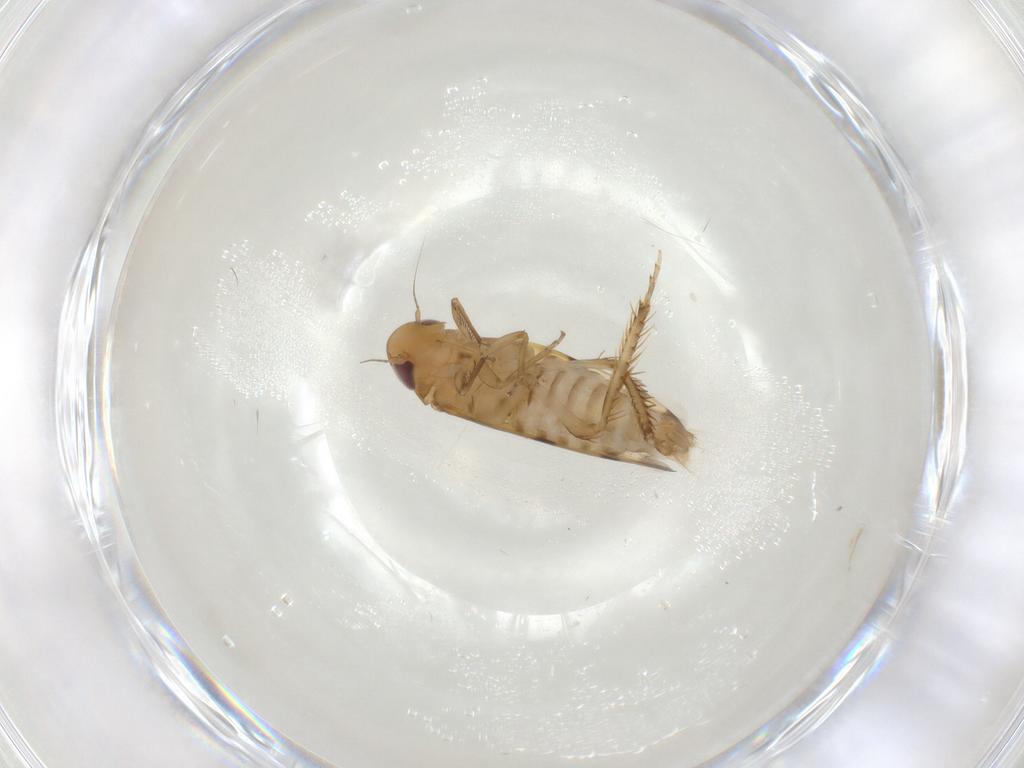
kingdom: Animalia
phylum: Arthropoda
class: Insecta
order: Hemiptera
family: Cicadellidae
